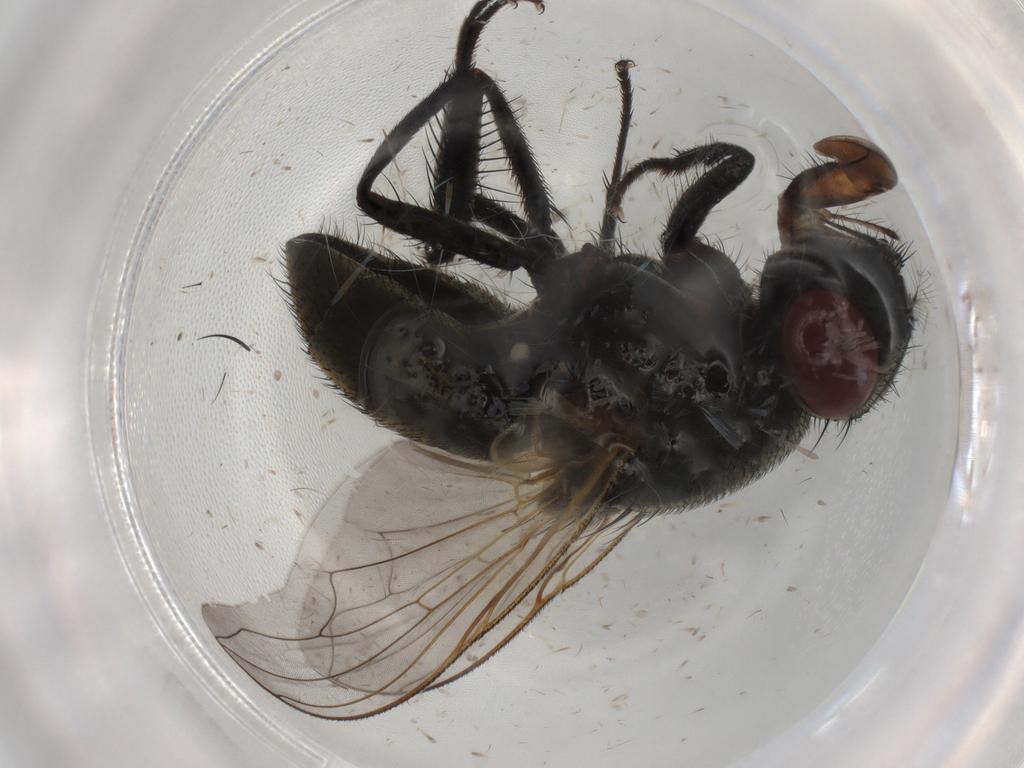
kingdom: Animalia
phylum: Arthropoda
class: Insecta
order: Diptera
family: Muscidae
